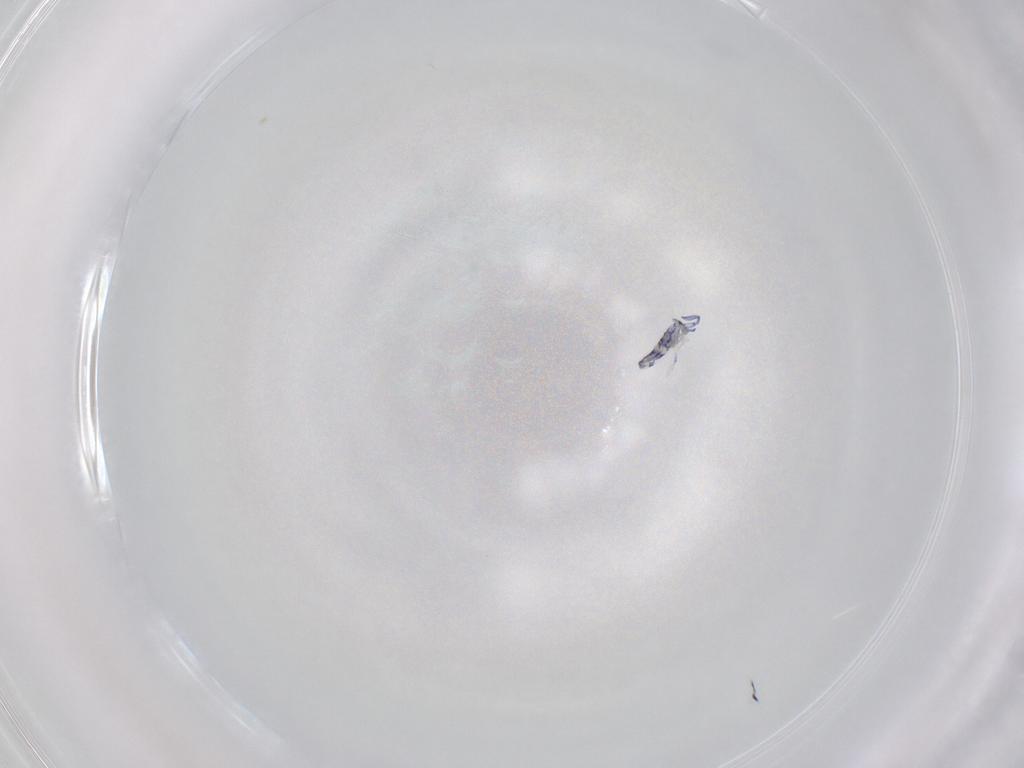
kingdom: Animalia
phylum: Arthropoda
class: Collembola
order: Entomobryomorpha
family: Entomobryidae
